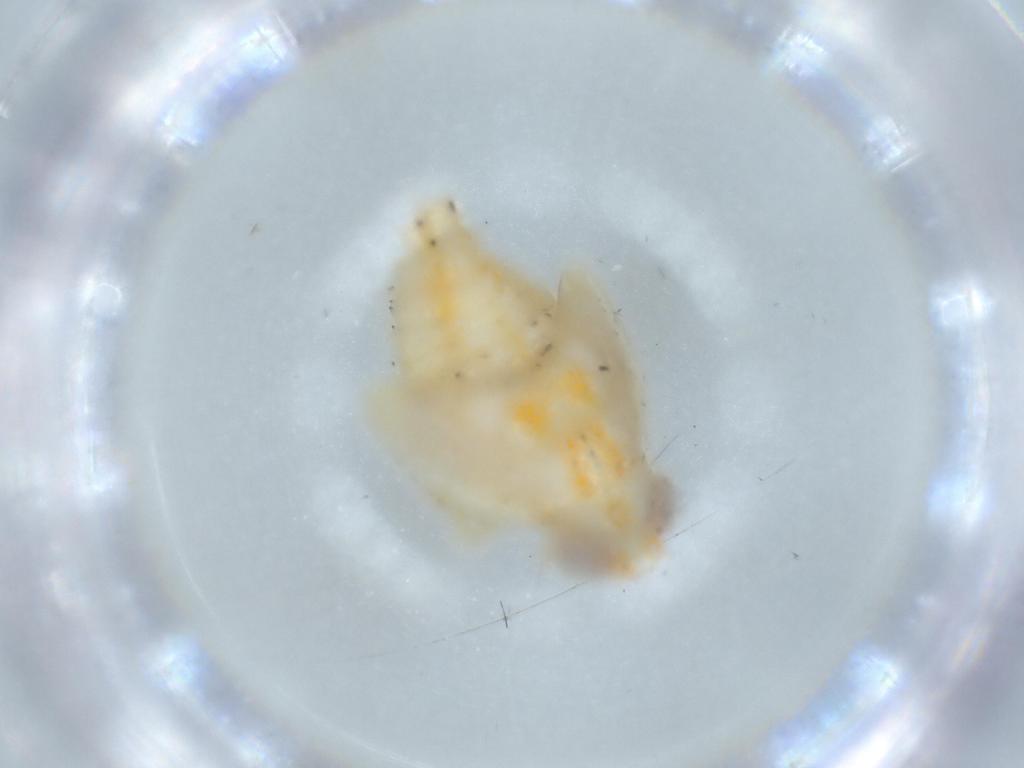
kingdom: Animalia
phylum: Arthropoda
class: Insecta
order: Hemiptera
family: Nogodinidae
